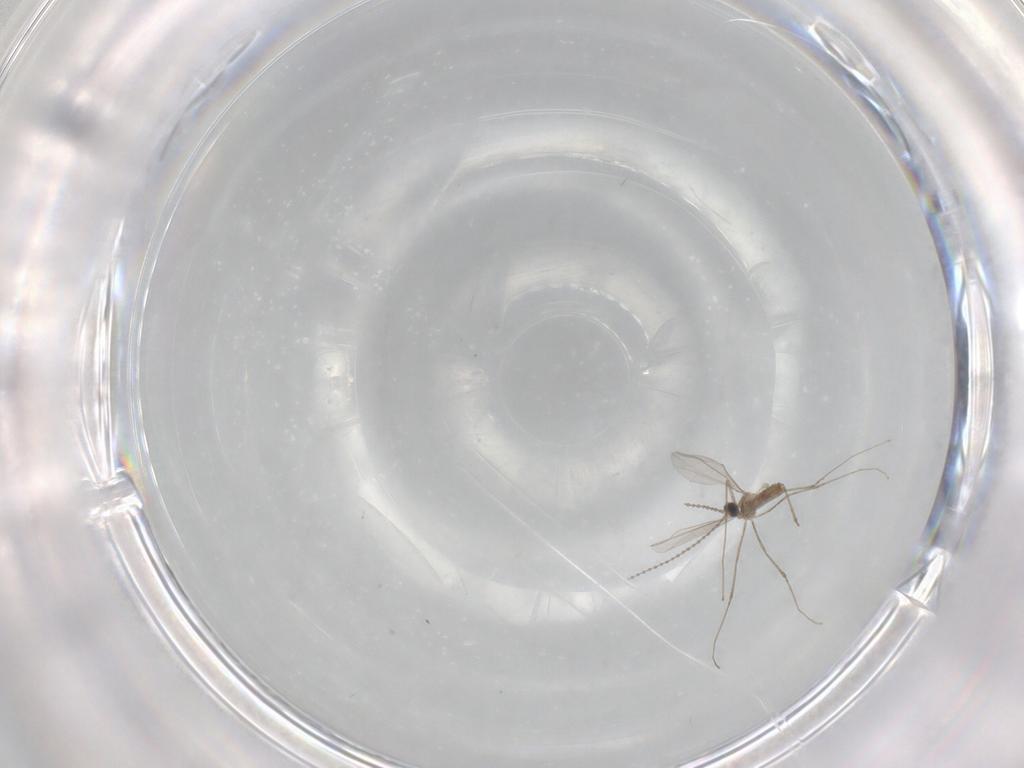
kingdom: Animalia
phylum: Arthropoda
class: Insecta
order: Diptera
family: Cecidomyiidae
